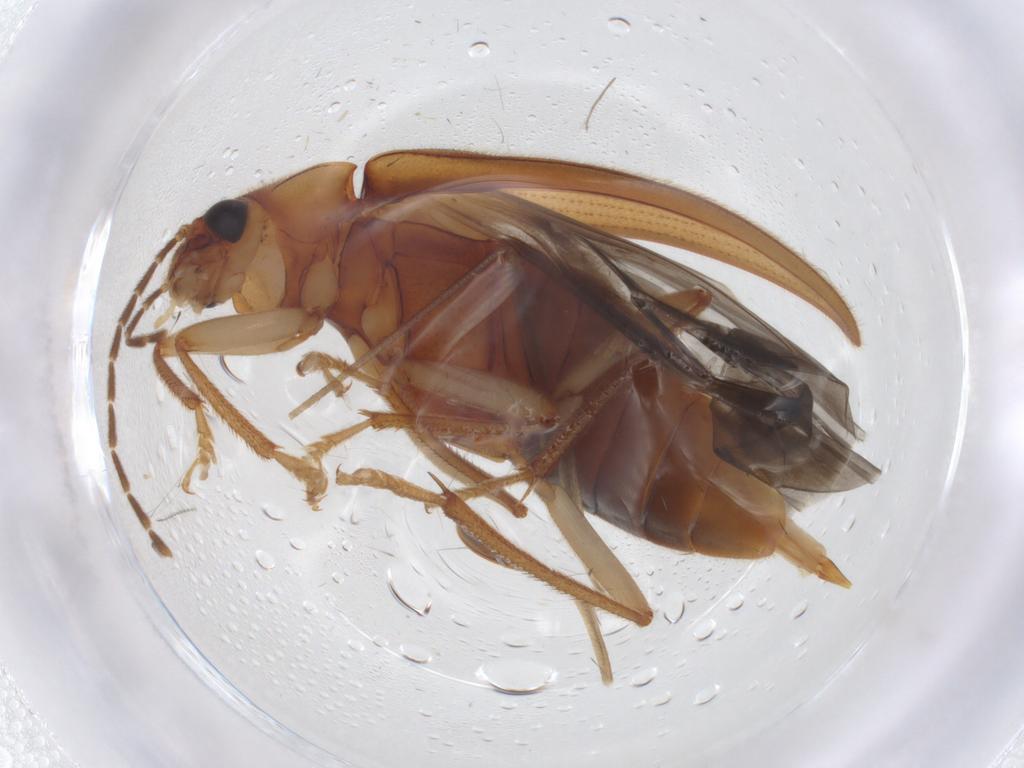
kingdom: Animalia
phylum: Arthropoda
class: Insecta
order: Coleoptera
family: Ptilodactylidae
